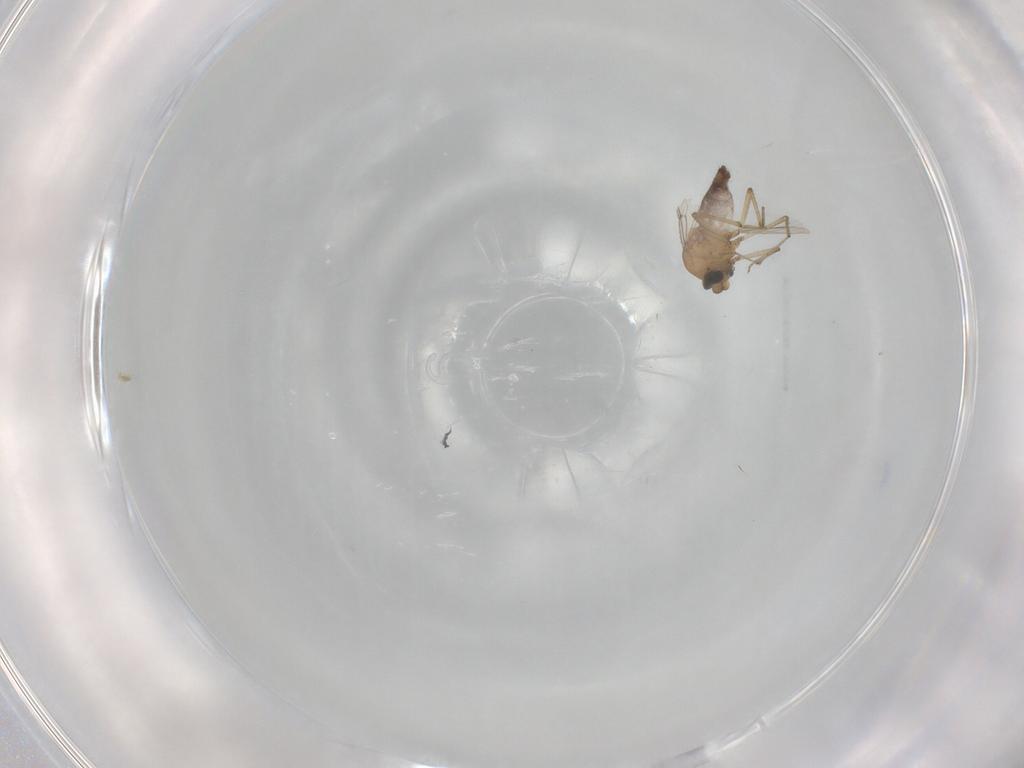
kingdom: Animalia
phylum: Arthropoda
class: Insecta
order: Diptera
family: Ceratopogonidae
